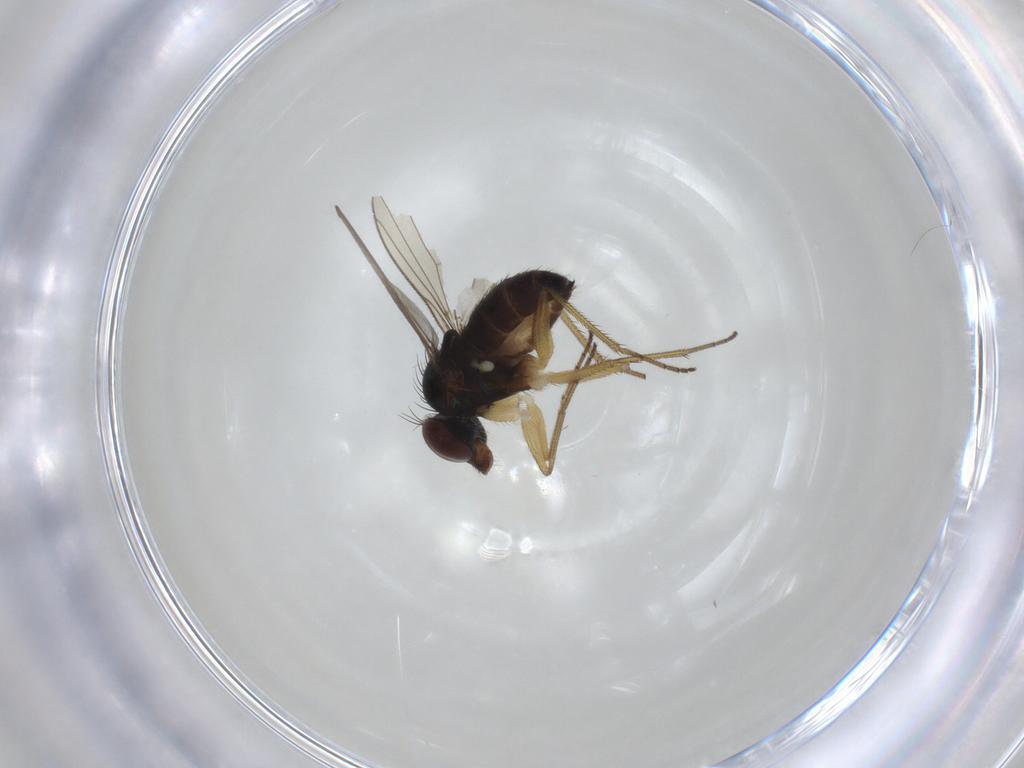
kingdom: Animalia
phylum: Arthropoda
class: Insecta
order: Diptera
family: Dolichopodidae
